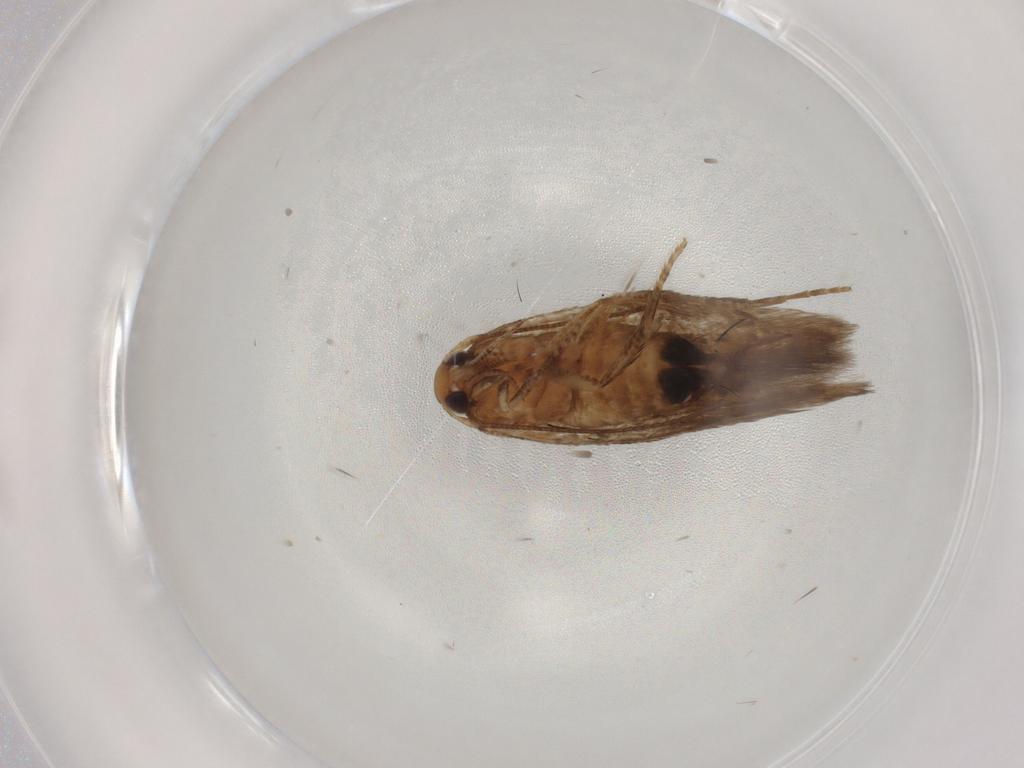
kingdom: Animalia
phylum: Arthropoda
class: Insecta
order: Lepidoptera
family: Cosmopterigidae
